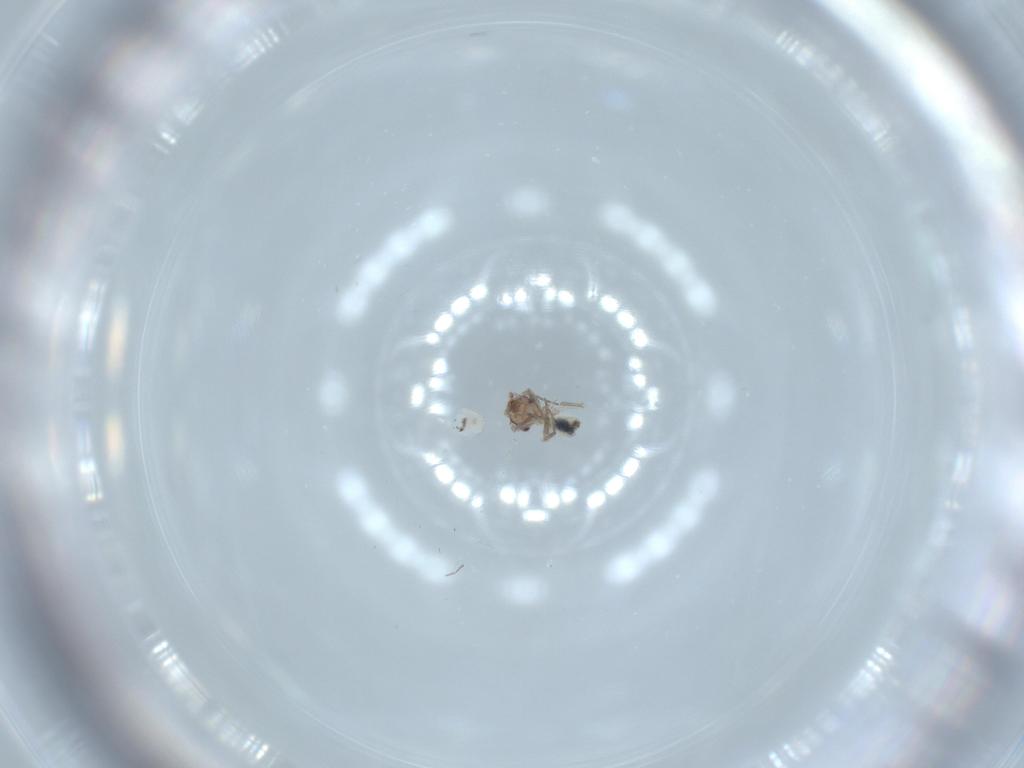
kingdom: Animalia
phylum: Arthropoda
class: Insecta
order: Psocodea
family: Lepidopsocidae
